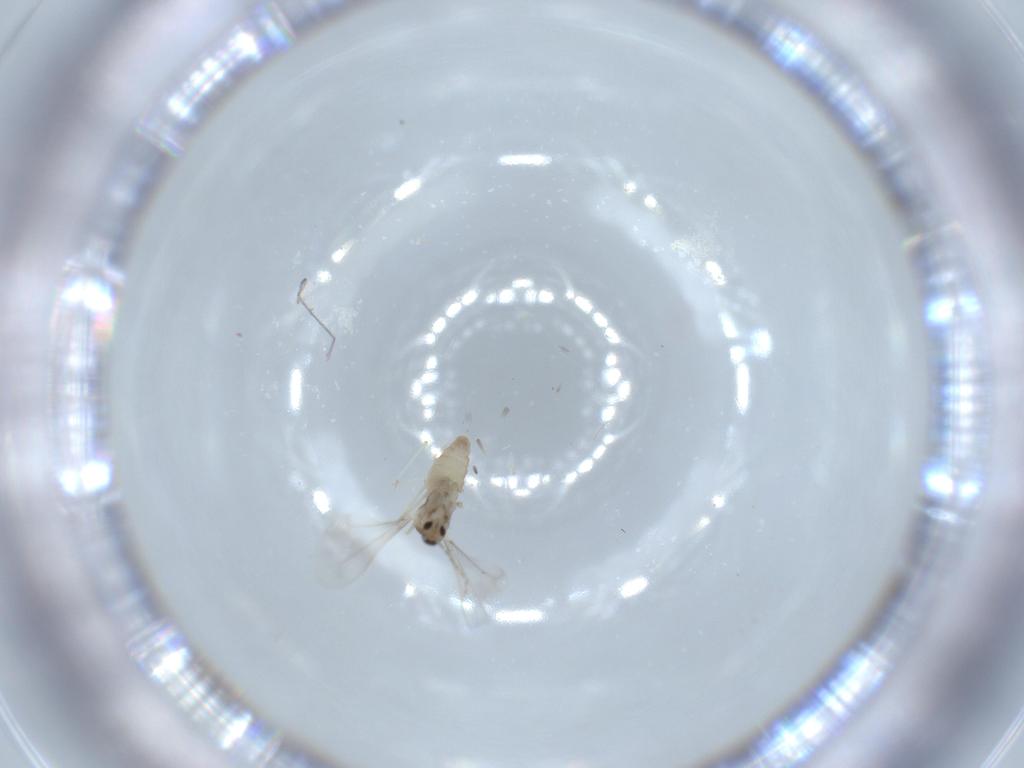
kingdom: Animalia
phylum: Arthropoda
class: Insecta
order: Diptera
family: Cecidomyiidae
